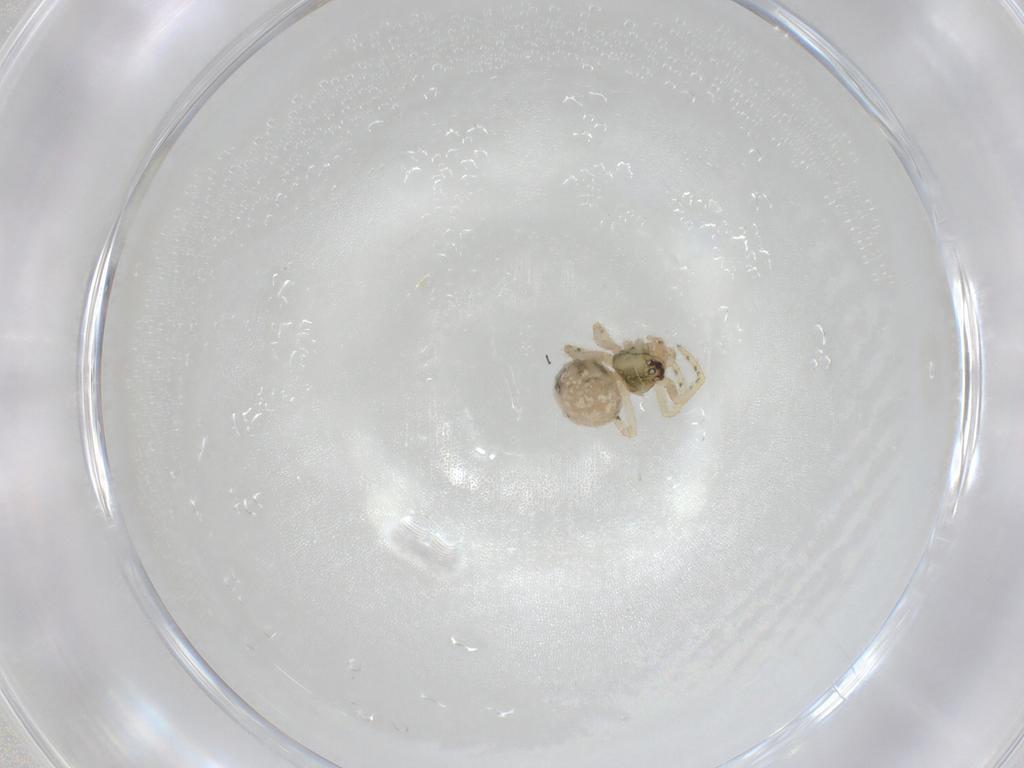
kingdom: Animalia
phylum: Arthropoda
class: Arachnida
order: Araneae
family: Theridiidae
